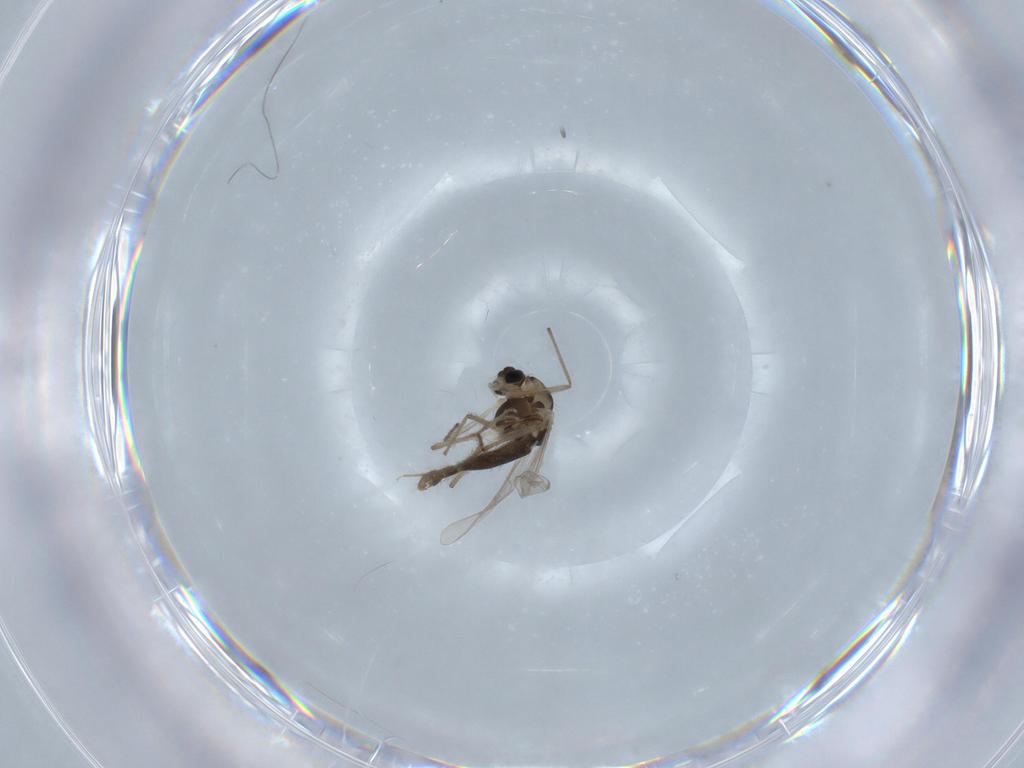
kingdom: Animalia
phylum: Arthropoda
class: Insecta
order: Diptera
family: Chironomidae
